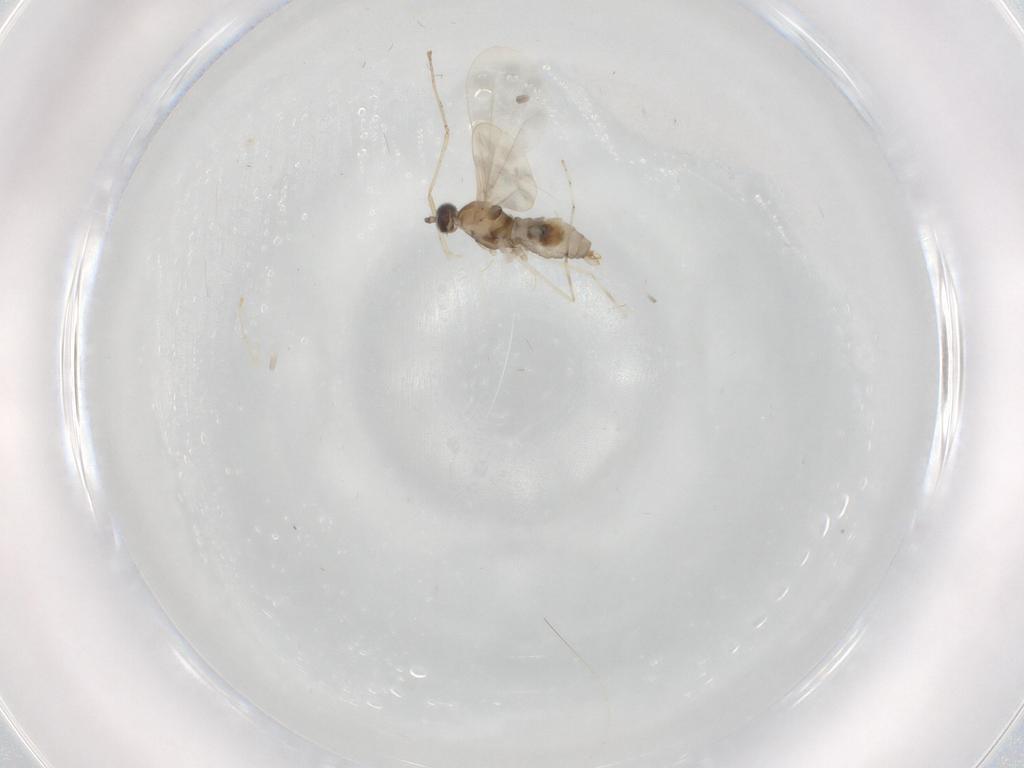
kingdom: Animalia
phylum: Arthropoda
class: Insecta
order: Diptera
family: Cecidomyiidae
